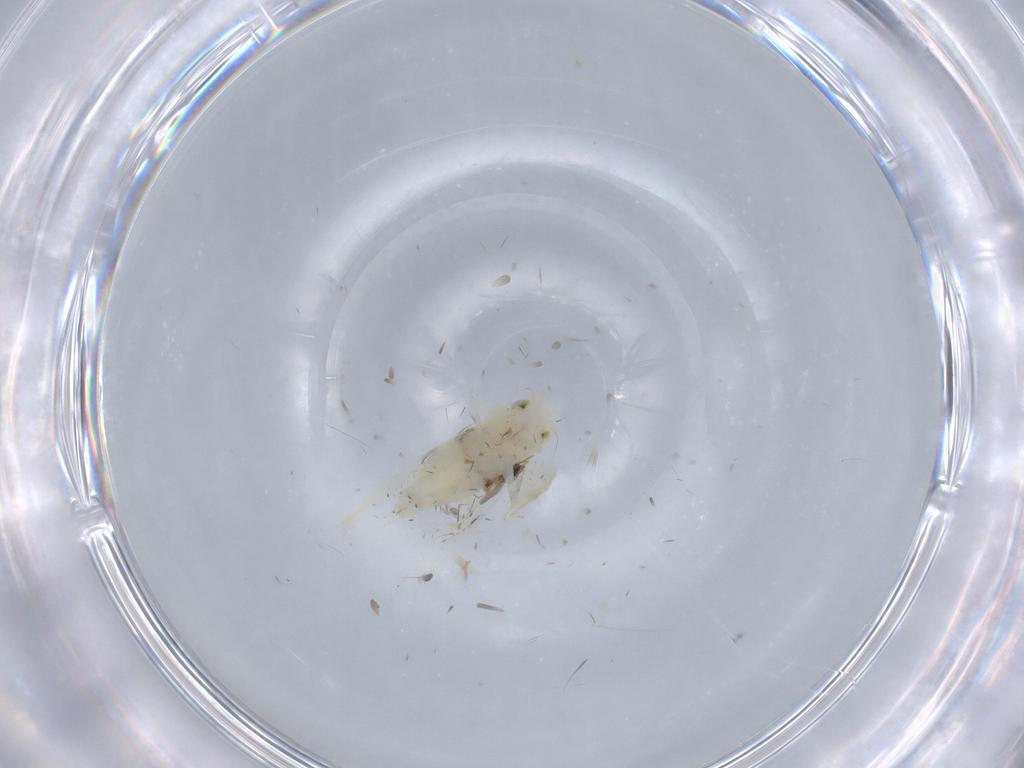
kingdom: Animalia
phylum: Arthropoda
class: Insecta
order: Hemiptera
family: Cicadellidae
